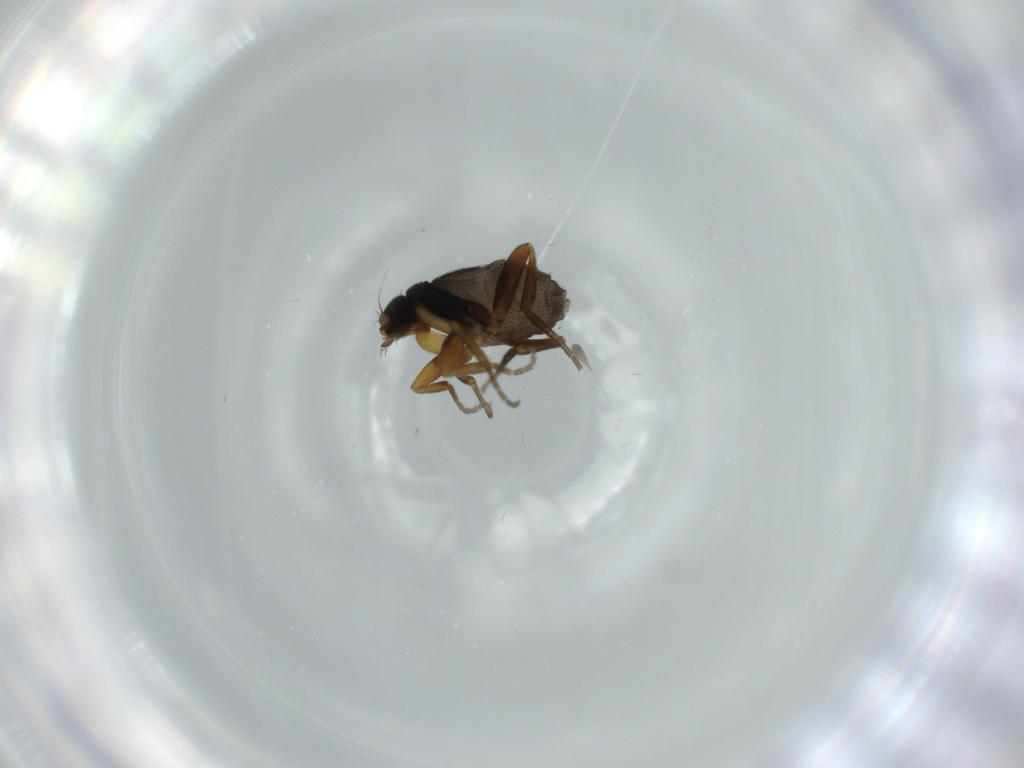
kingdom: Animalia
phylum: Arthropoda
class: Insecta
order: Diptera
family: Phoridae
